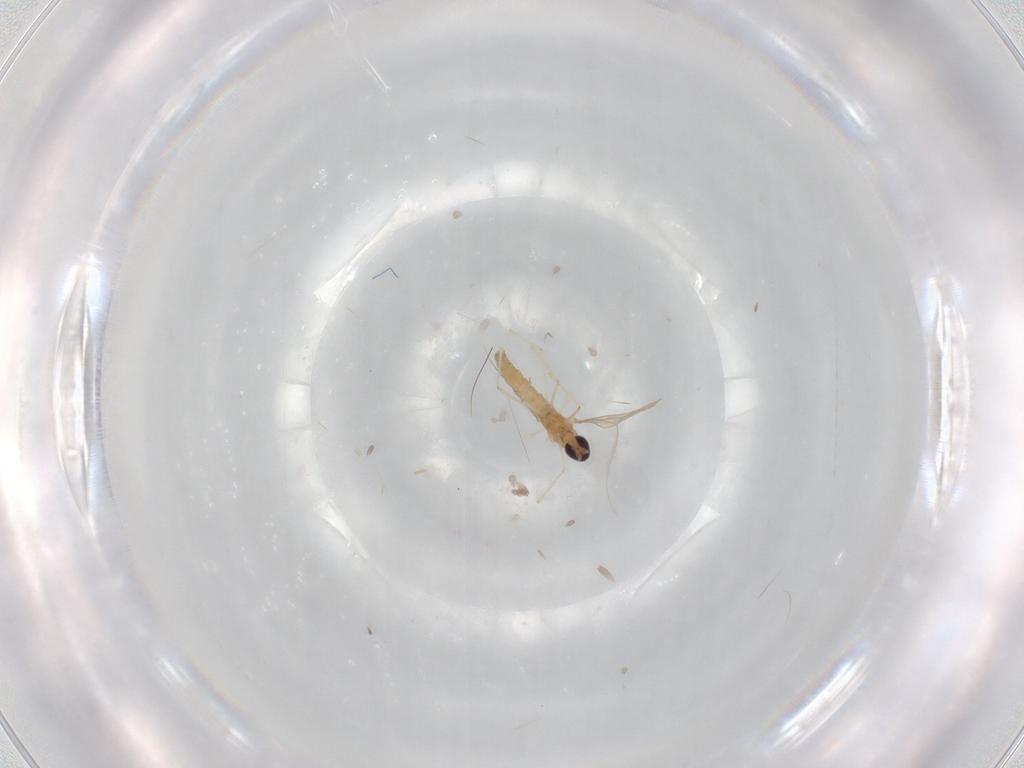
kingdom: Animalia
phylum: Arthropoda
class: Insecta
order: Diptera
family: Cecidomyiidae
